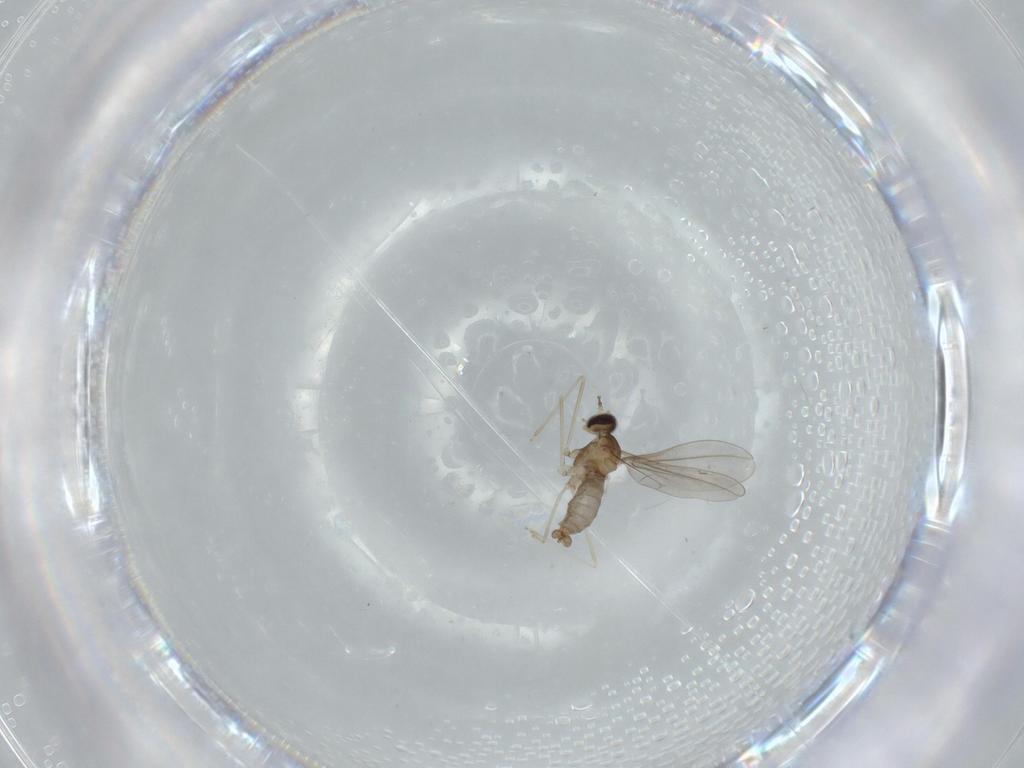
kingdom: Animalia
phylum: Arthropoda
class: Insecta
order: Diptera
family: Cecidomyiidae
